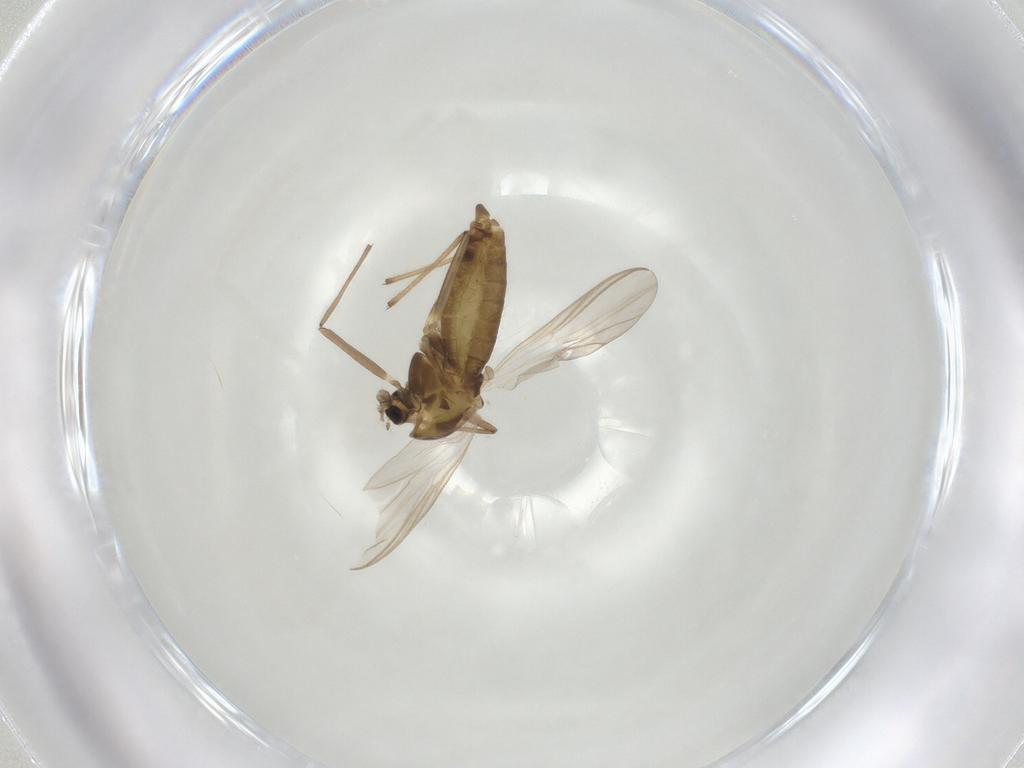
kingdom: Animalia
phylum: Arthropoda
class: Insecta
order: Diptera
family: Chironomidae
